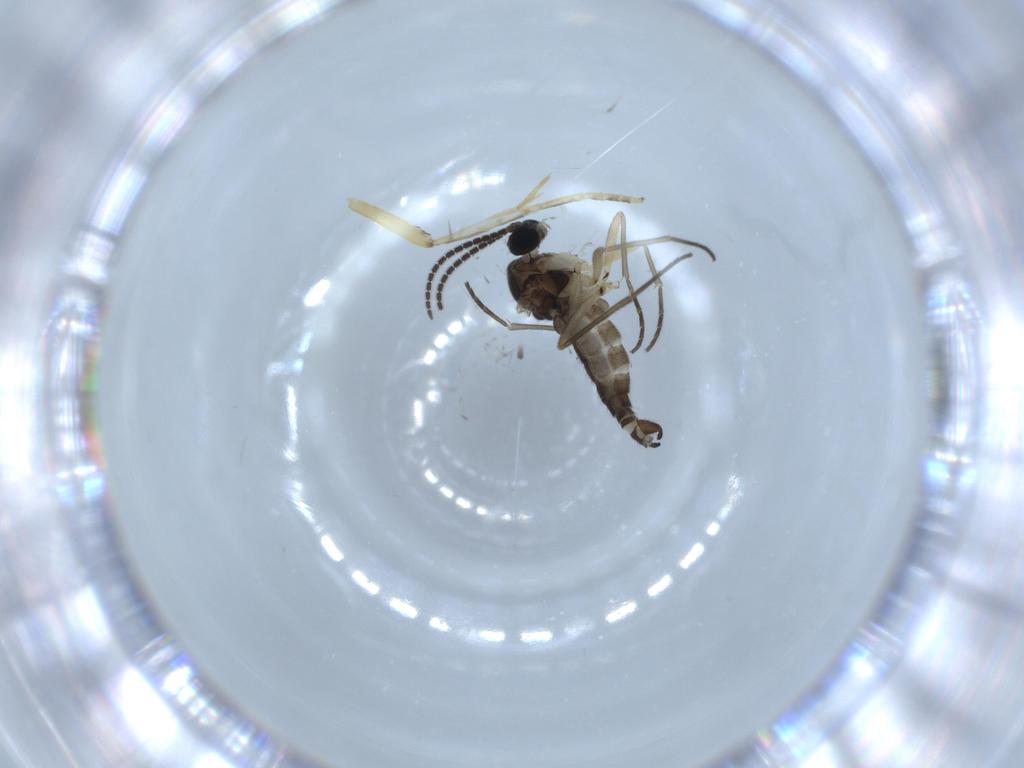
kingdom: Animalia
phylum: Arthropoda
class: Insecta
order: Diptera
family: Sciaridae
